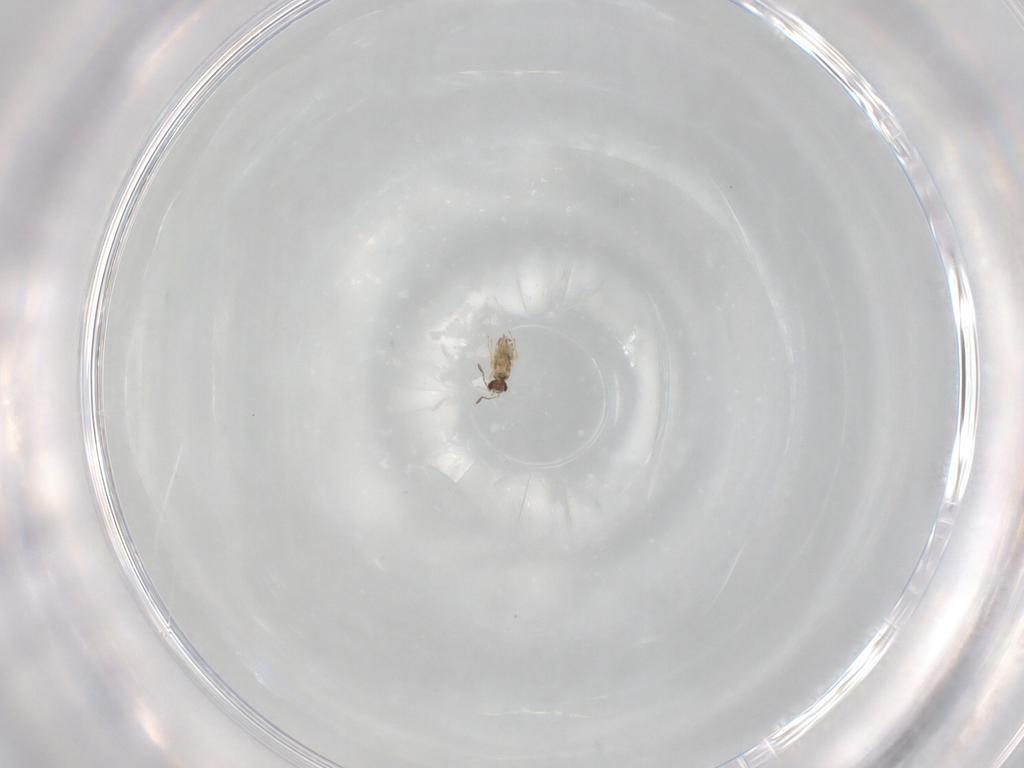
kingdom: Animalia
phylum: Arthropoda
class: Insecta
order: Hymenoptera
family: Mymaridae
